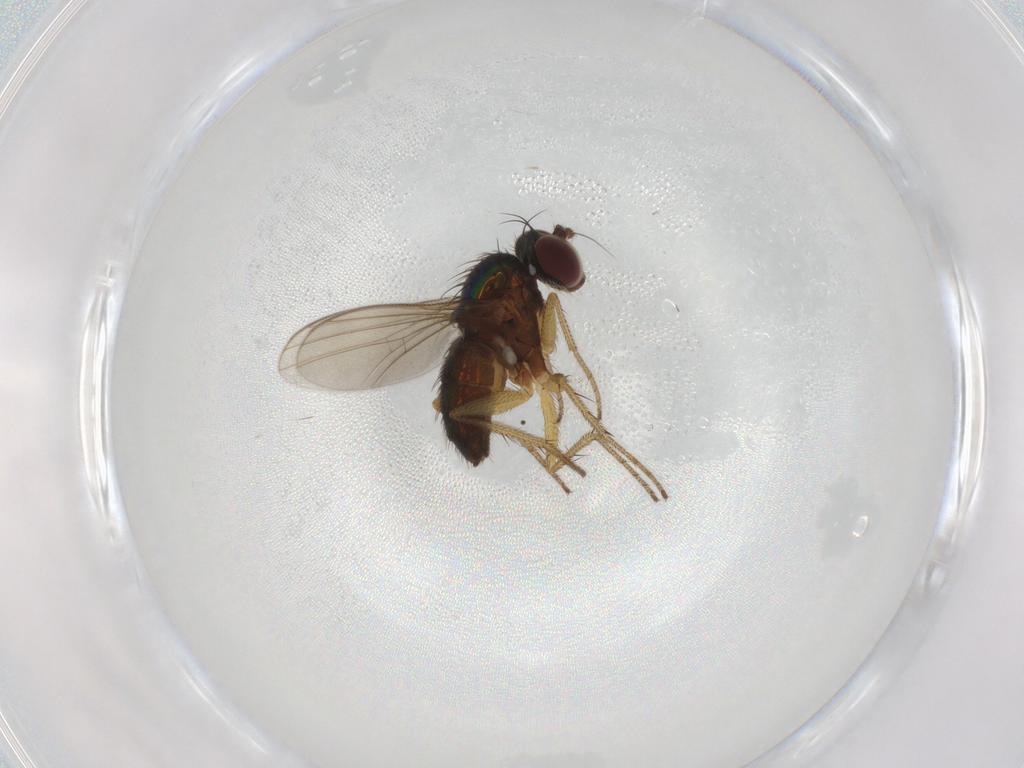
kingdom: Animalia
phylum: Arthropoda
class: Insecta
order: Diptera
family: Dolichopodidae
